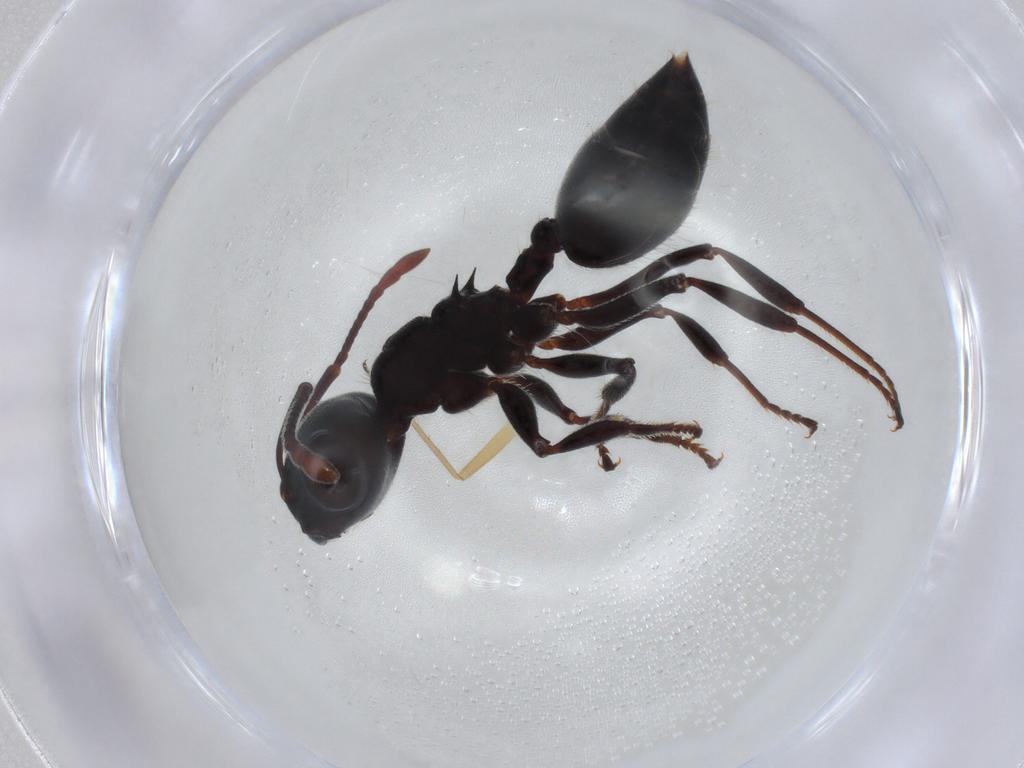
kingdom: Animalia
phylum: Arthropoda
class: Insecta
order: Hymenoptera
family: Formicidae
